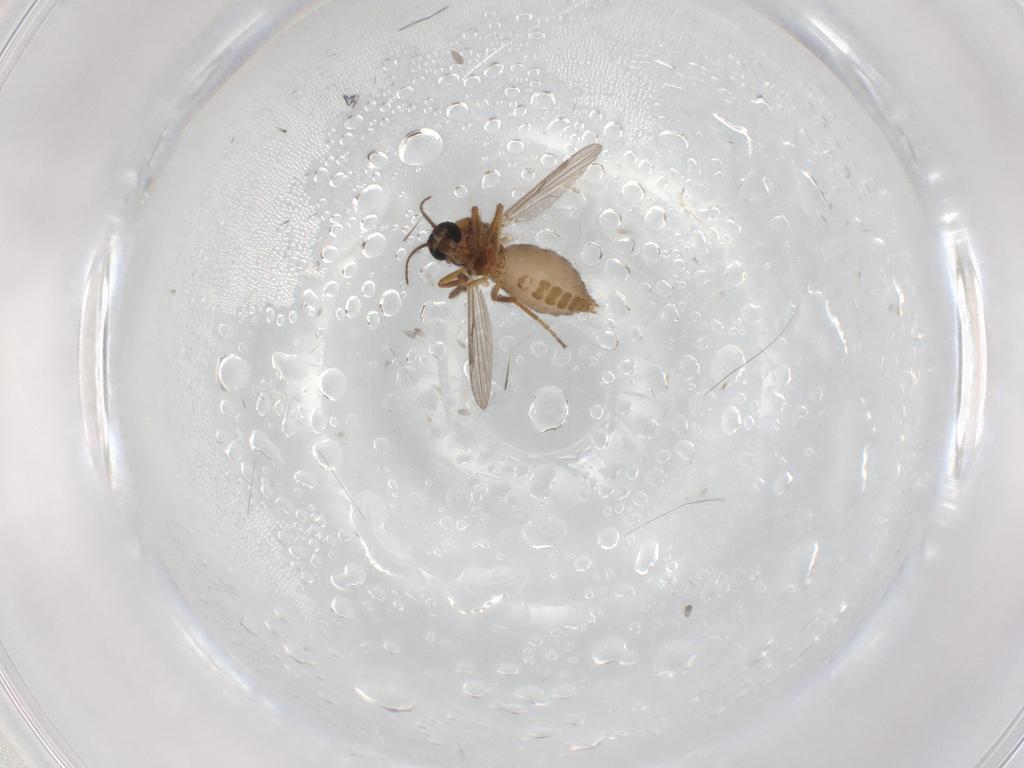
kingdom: Animalia
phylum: Arthropoda
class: Insecta
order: Diptera
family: Ceratopogonidae
